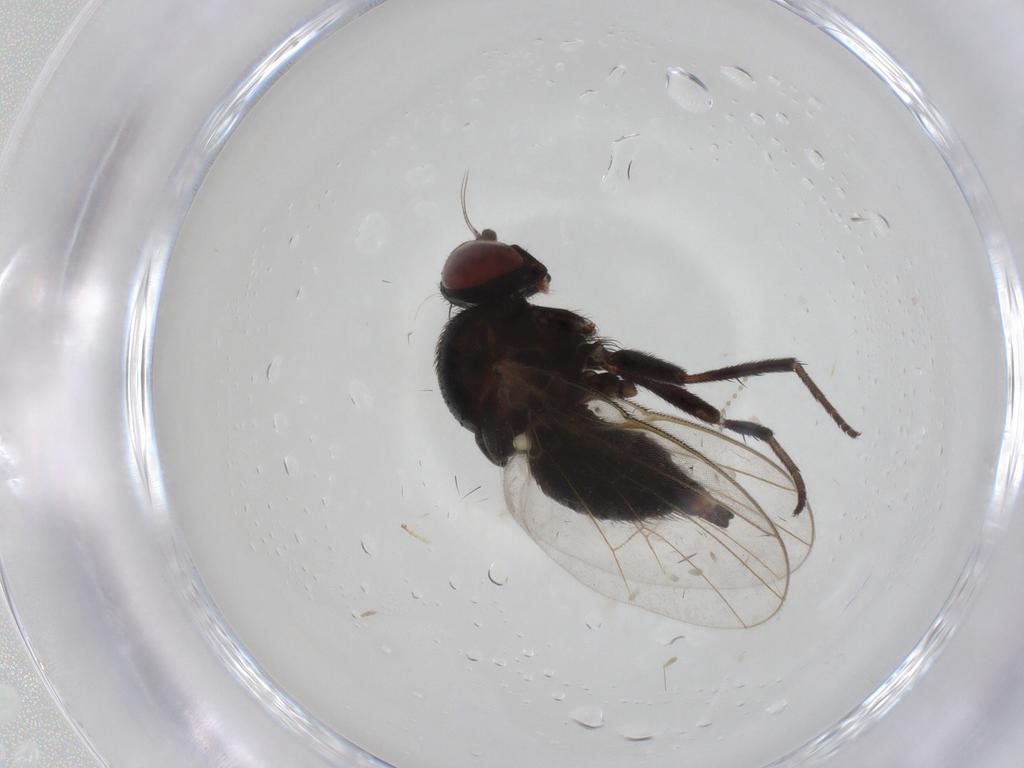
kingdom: Animalia
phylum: Arthropoda
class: Insecta
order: Diptera
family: Agromyzidae
